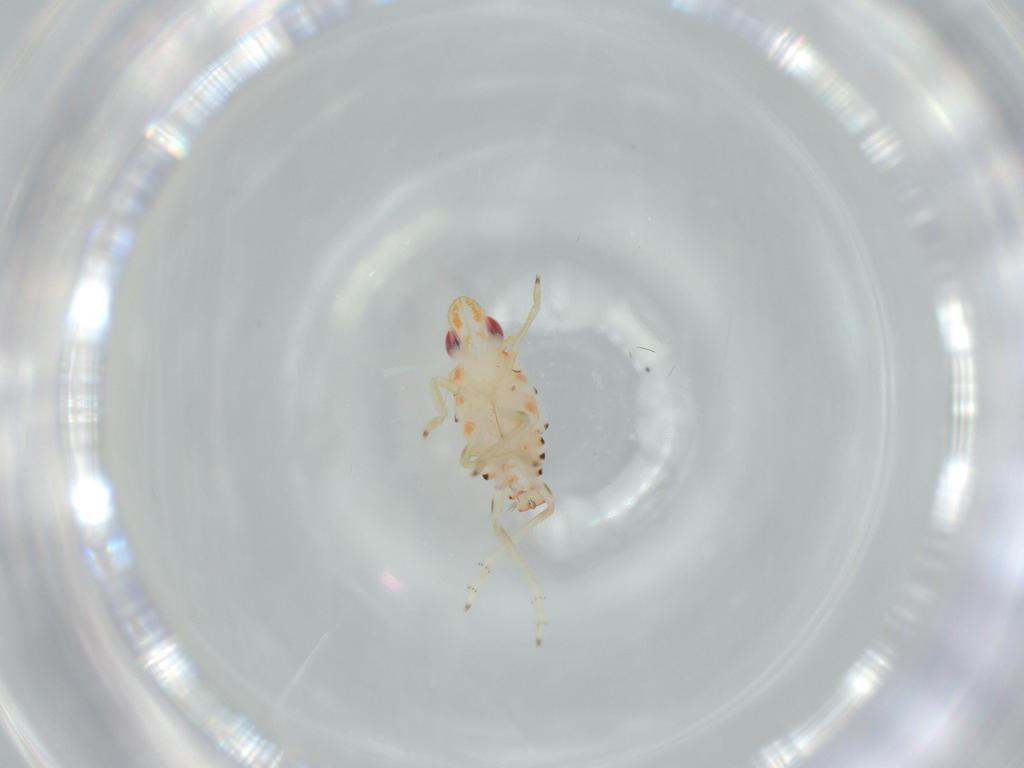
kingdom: Animalia
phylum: Arthropoda
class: Insecta
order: Hemiptera
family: Tropiduchidae
